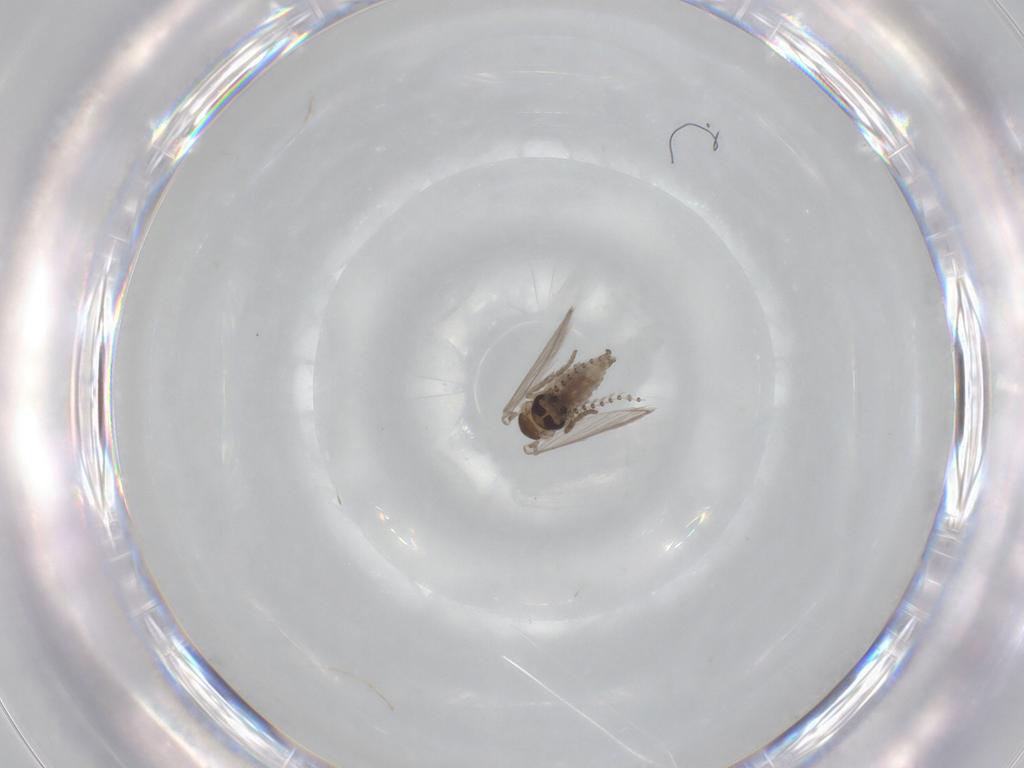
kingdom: Animalia
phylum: Arthropoda
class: Insecta
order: Diptera
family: Psychodidae
